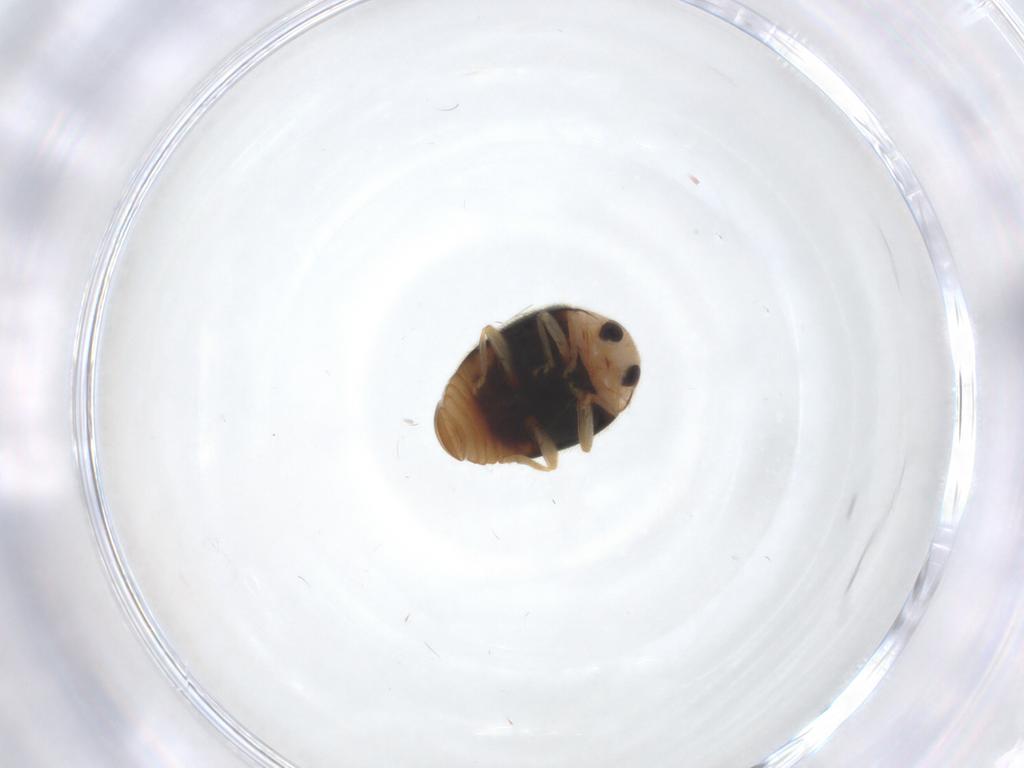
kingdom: Animalia
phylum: Arthropoda
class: Insecta
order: Coleoptera
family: Coccinellidae
